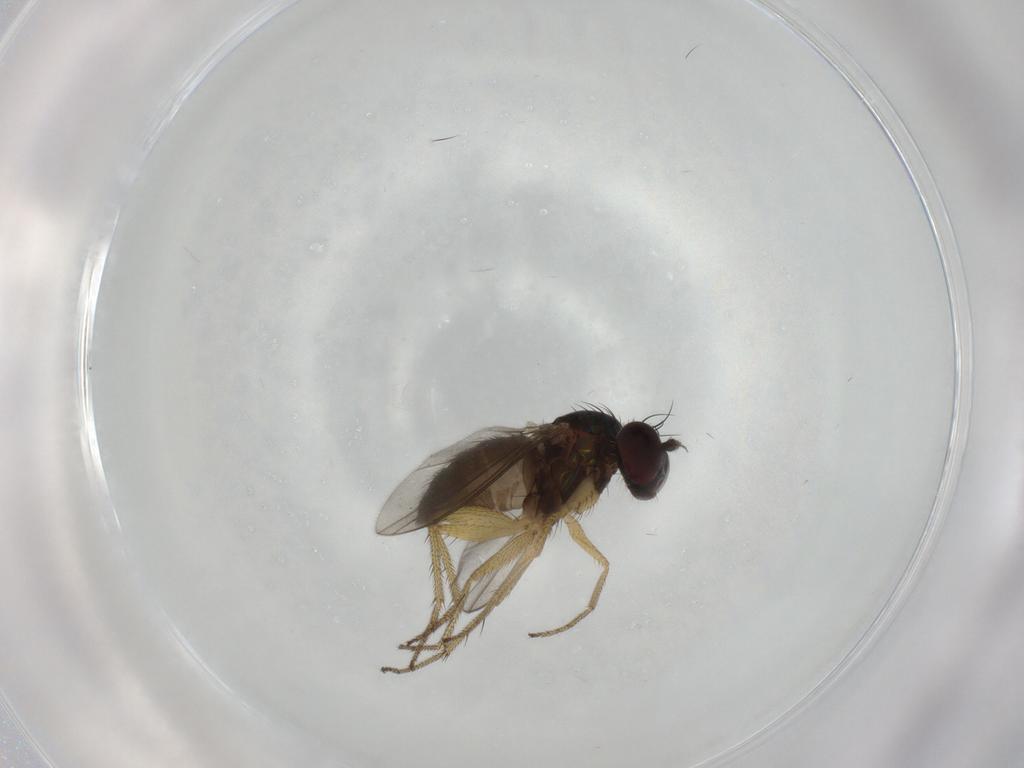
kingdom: Animalia
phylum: Arthropoda
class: Insecta
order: Diptera
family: Dolichopodidae
